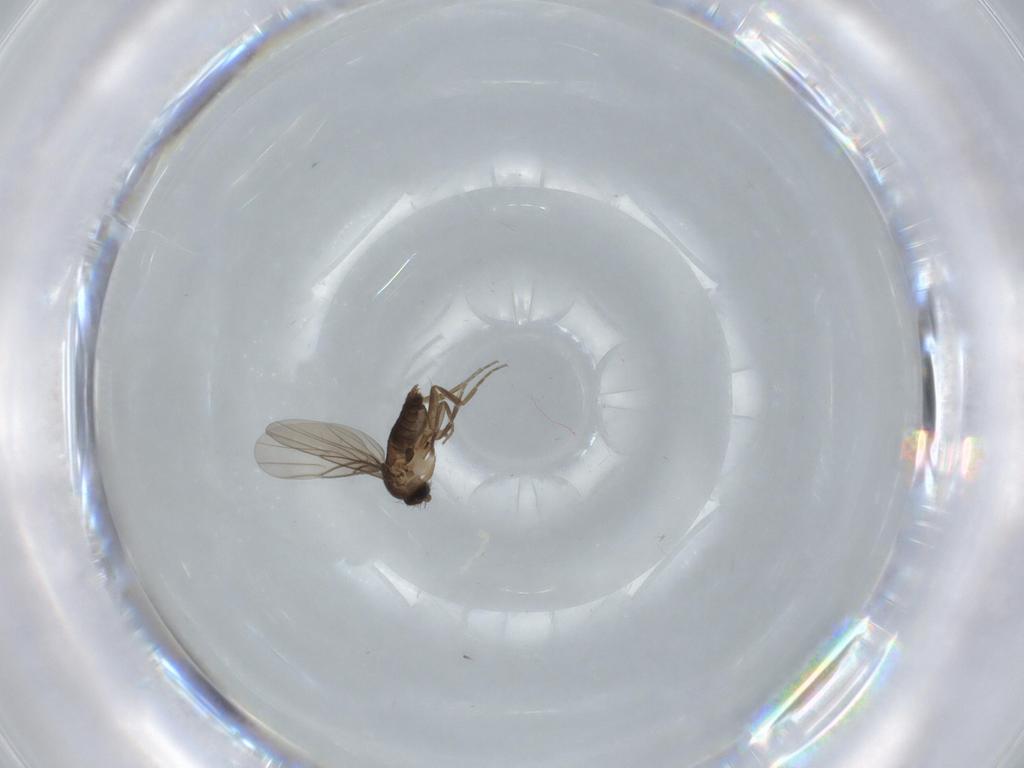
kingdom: Animalia
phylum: Arthropoda
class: Insecta
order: Diptera
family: Phoridae
